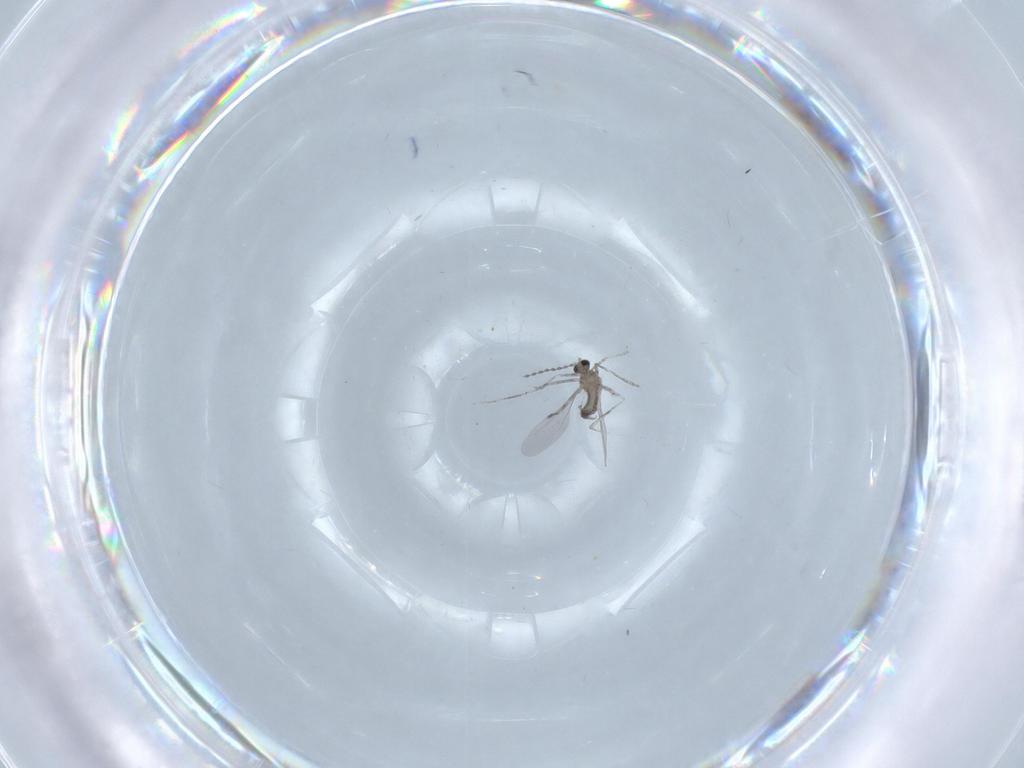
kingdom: Animalia
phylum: Arthropoda
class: Insecta
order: Diptera
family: Cecidomyiidae
